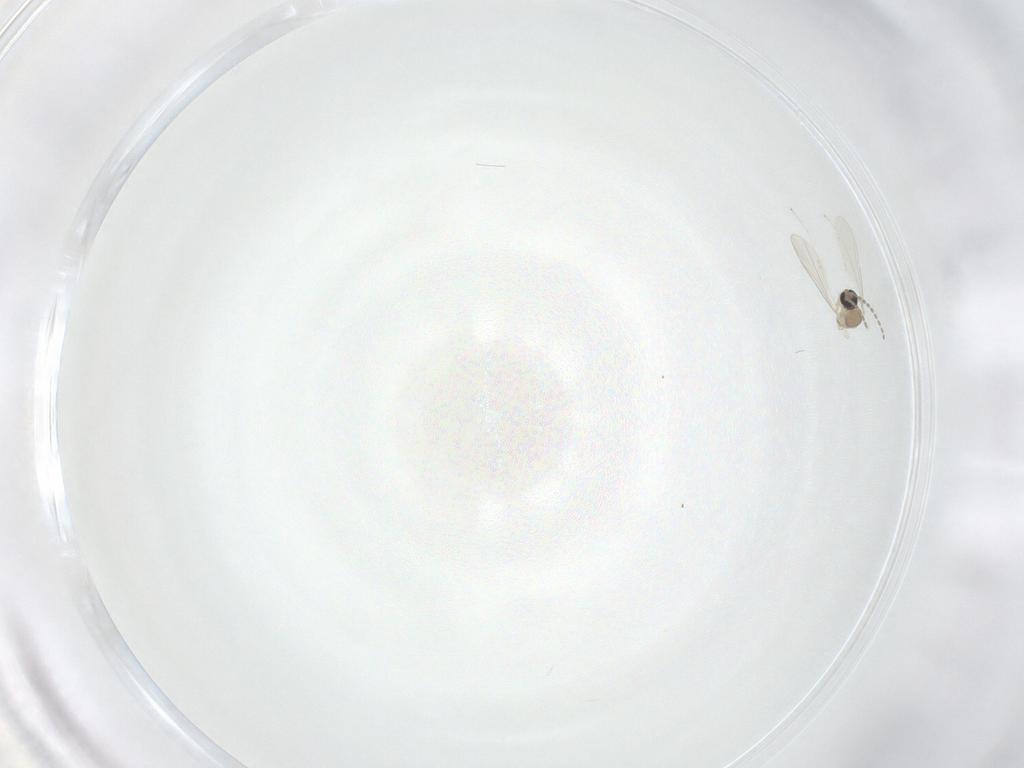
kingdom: Animalia
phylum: Arthropoda
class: Insecta
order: Diptera
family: Cecidomyiidae
